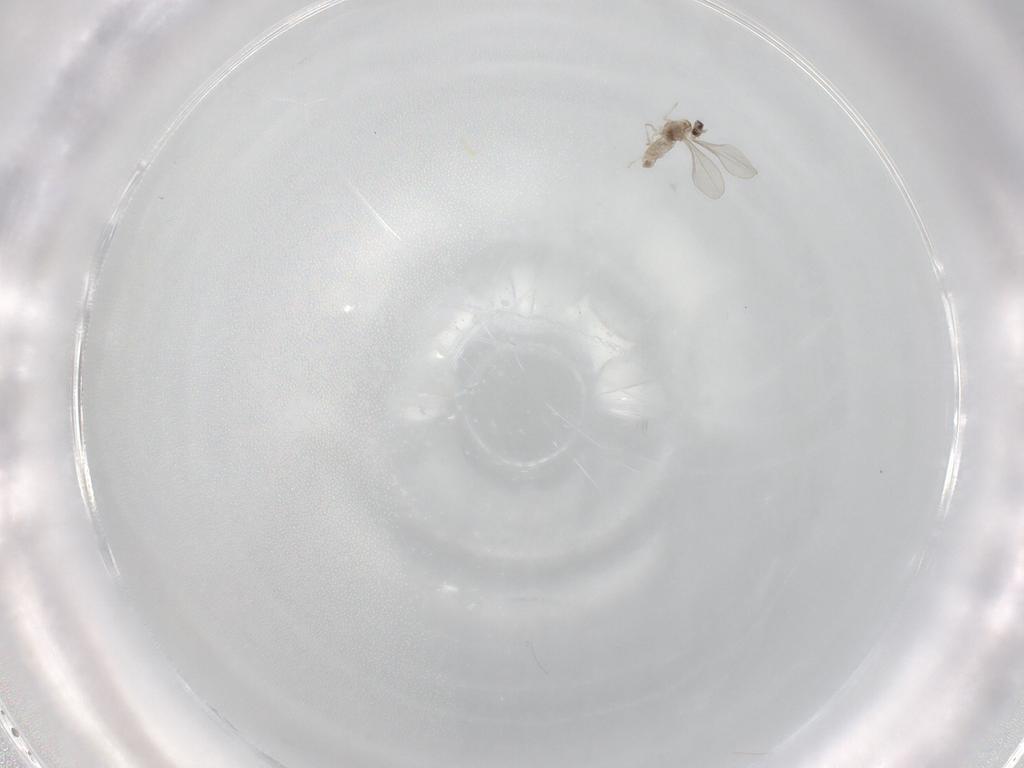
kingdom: Animalia
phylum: Arthropoda
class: Insecta
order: Diptera
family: Cecidomyiidae
